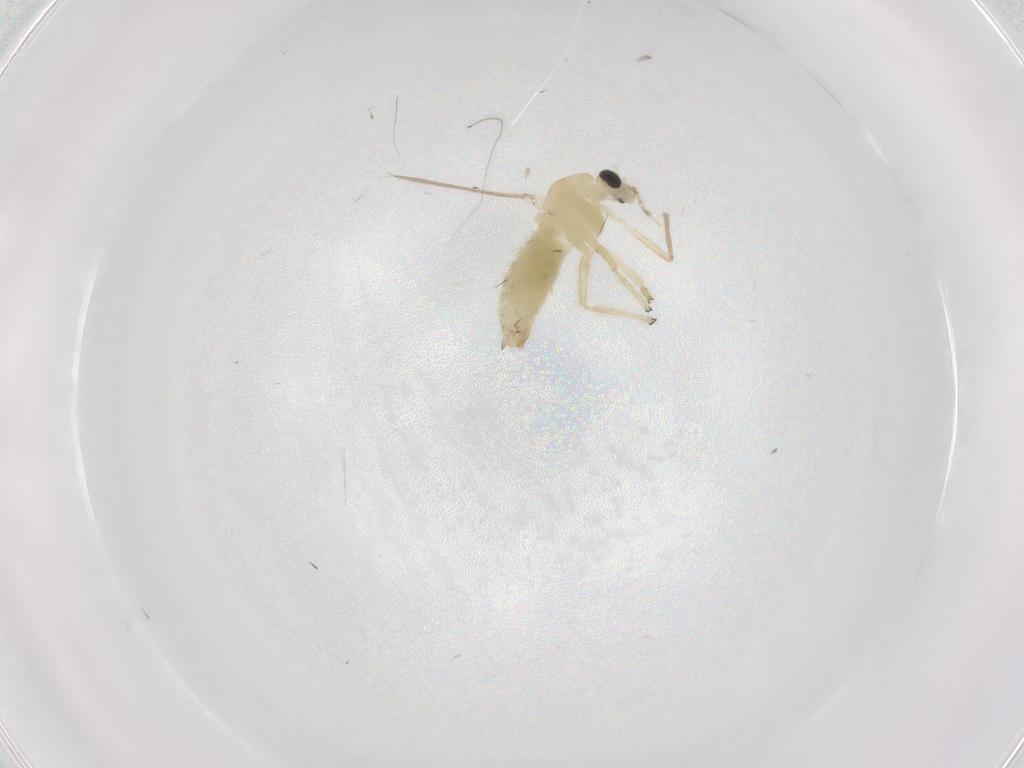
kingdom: Animalia
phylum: Arthropoda
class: Insecta
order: Diptera
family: Chironomidae
